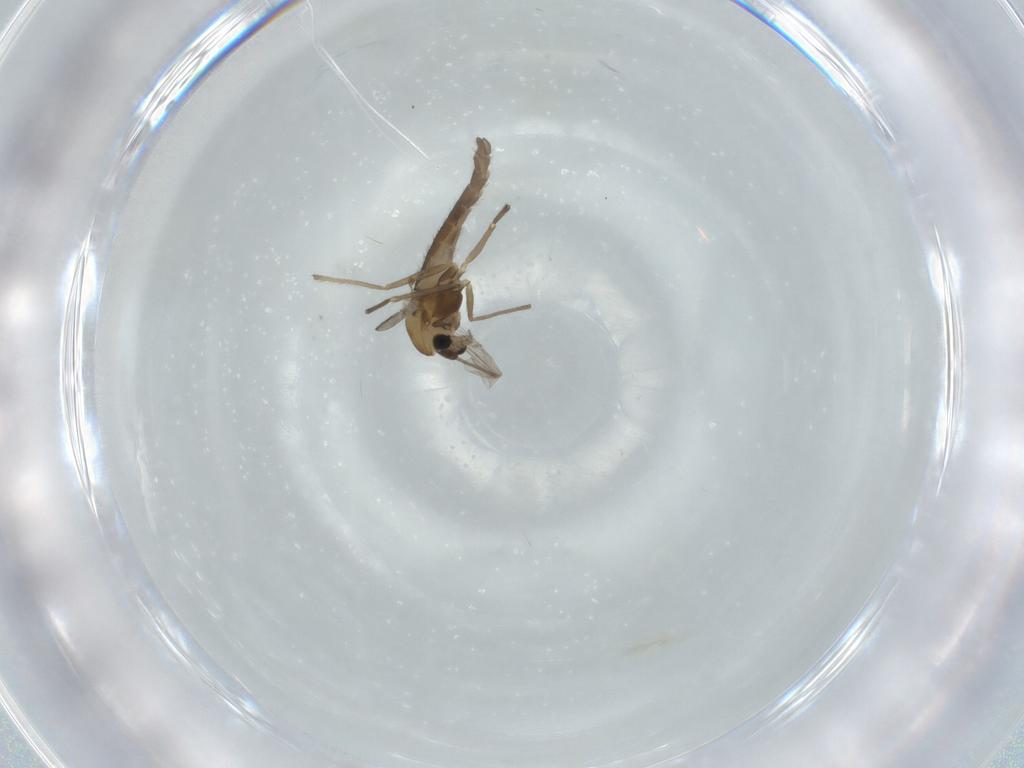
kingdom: Animalia
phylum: Arthropoda
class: Insecta
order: Diptera
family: Chironomidae
